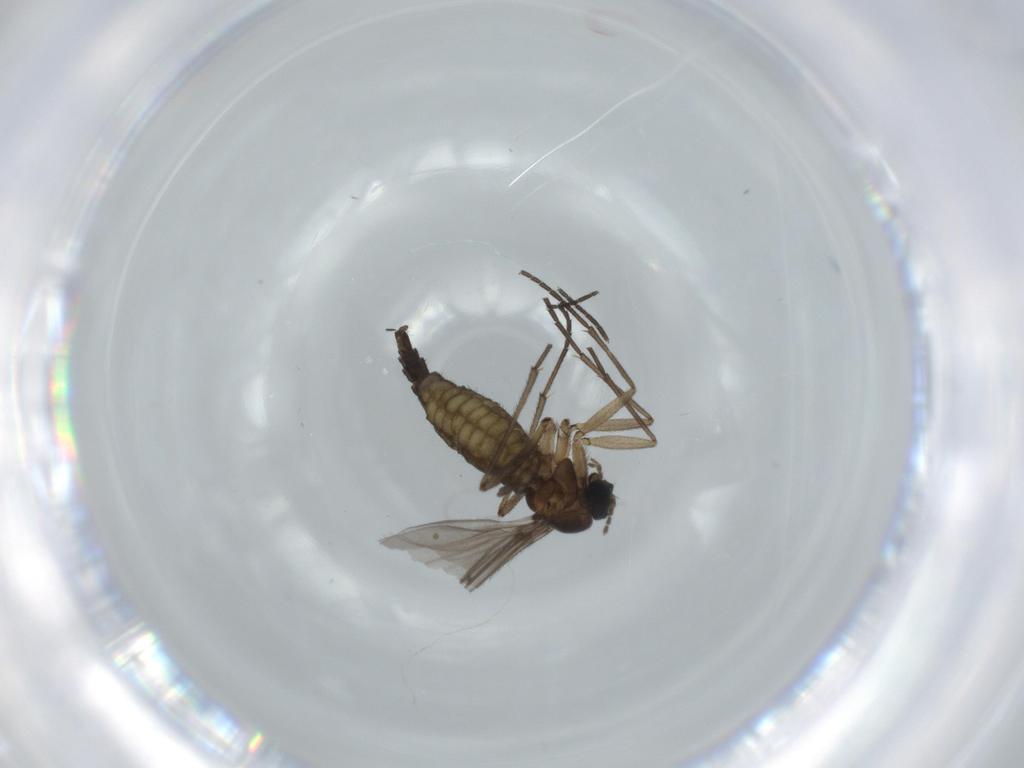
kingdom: Animalia
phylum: Arthropoda
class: Insecta
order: Diptera
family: Sciaridae
